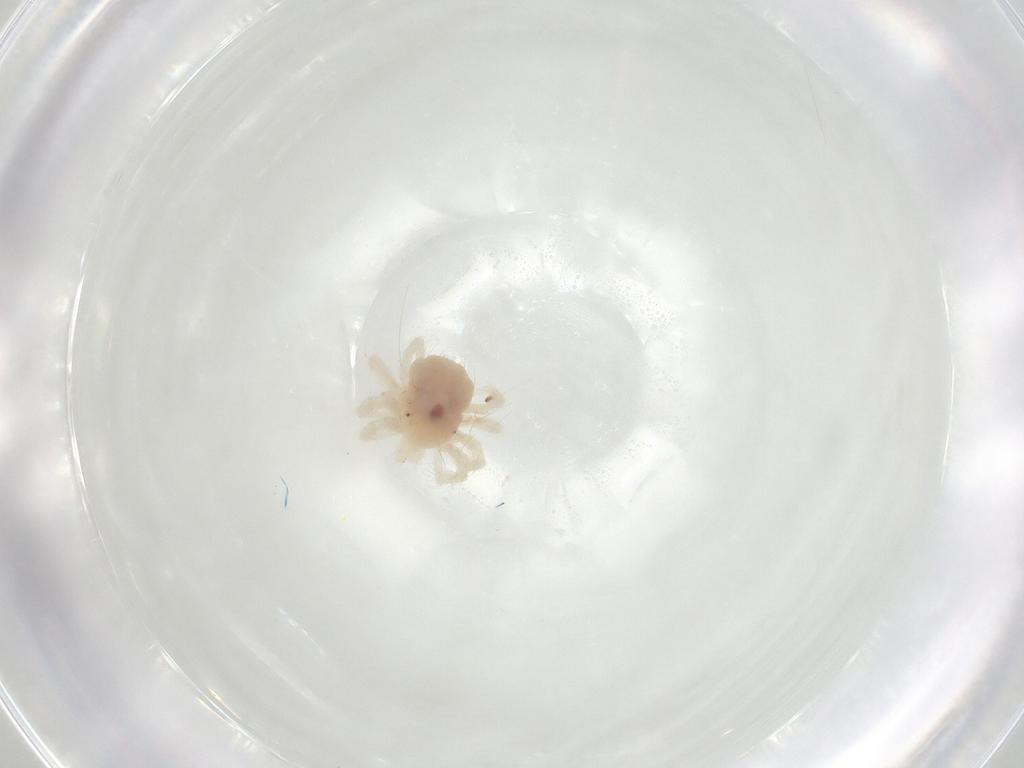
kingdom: Animalia
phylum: Arthropoda
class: Arachnida
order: Trombidiformes
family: Anystidae
